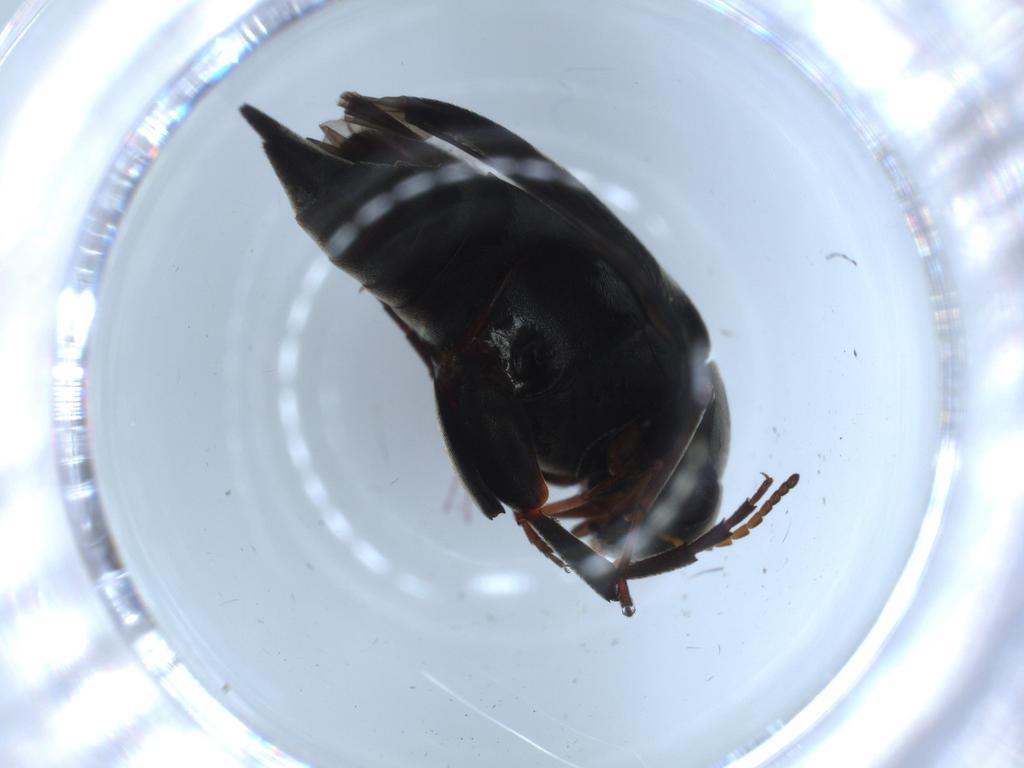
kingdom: Animalia
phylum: Arthropoda
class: Insecta
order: Coleoptera
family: Mordellidae
